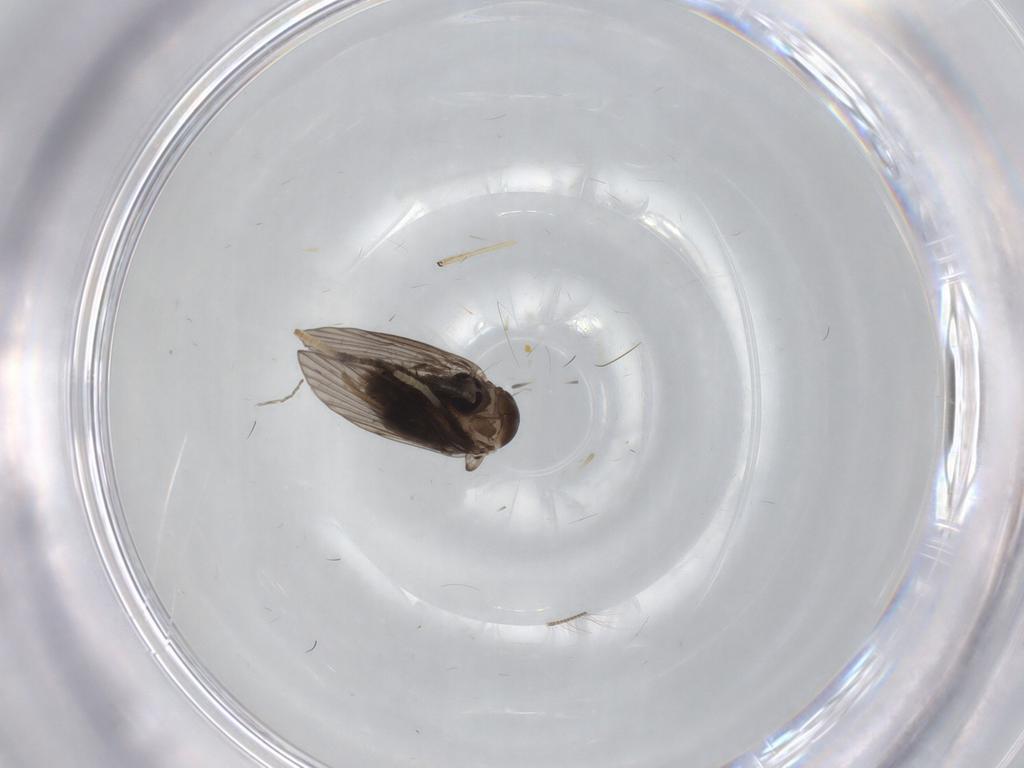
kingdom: Animalia
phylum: Arthropoda
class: Insecta
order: Diptera
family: Psychodidae
